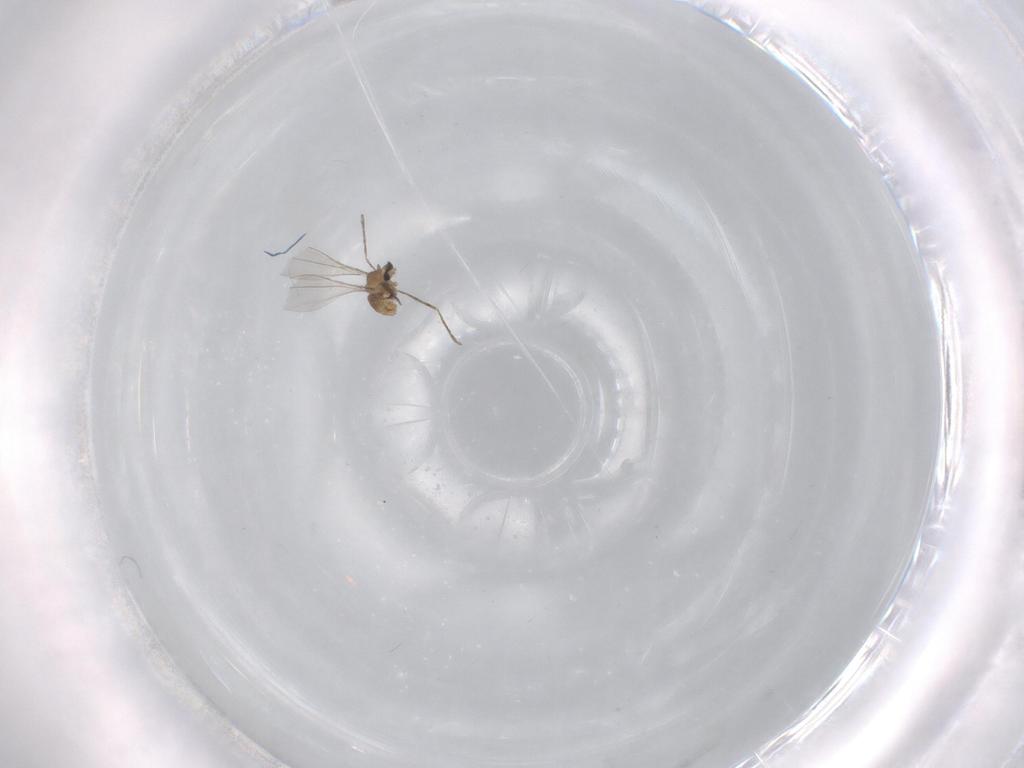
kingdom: Animalia
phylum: Arthropoda
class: Insecta
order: Diptera
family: Cecidomyiidae
